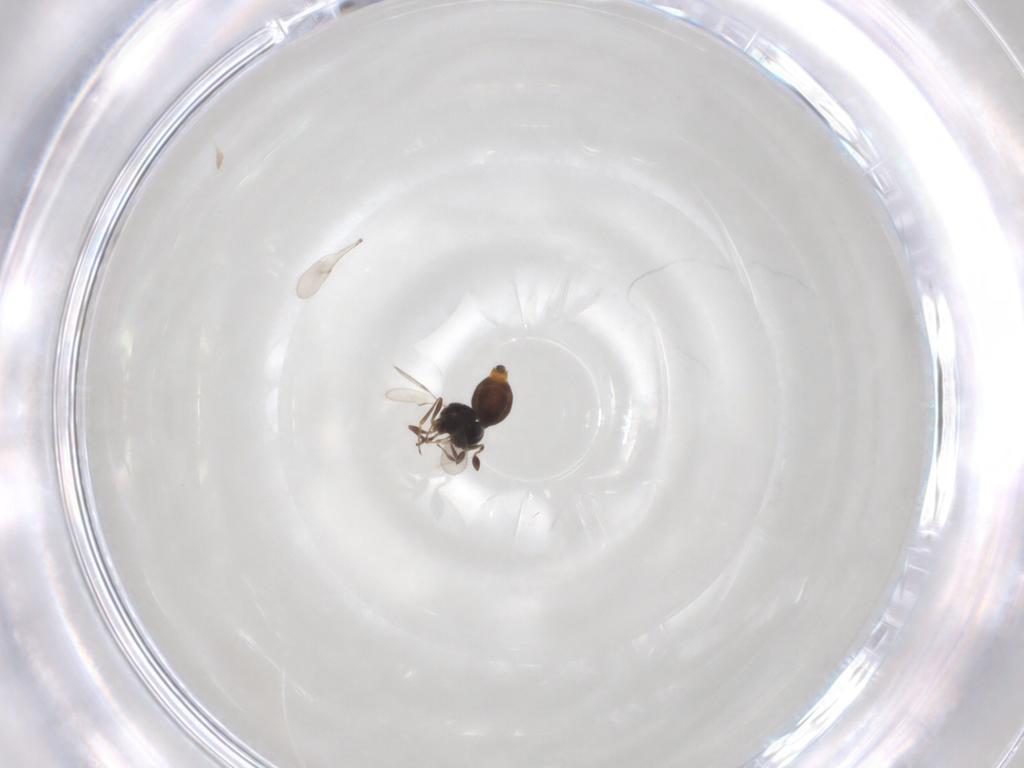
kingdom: Animalia
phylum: Arthropoda
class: Insecta
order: Hymenoptera
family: Scelionidae
